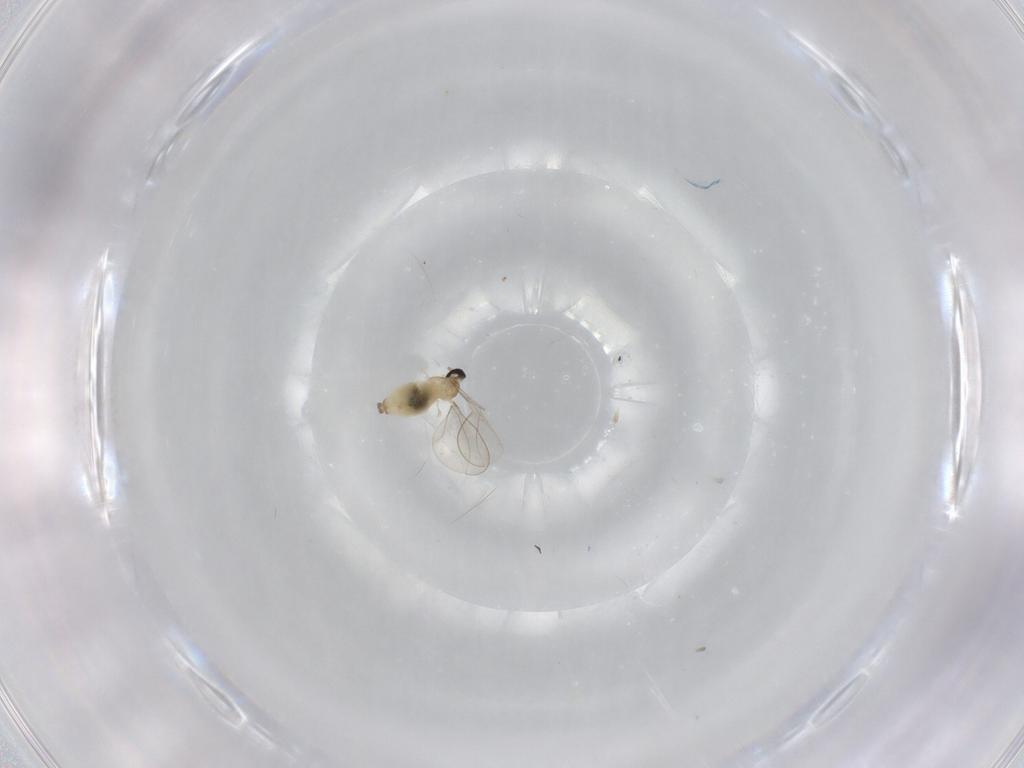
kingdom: Animalia
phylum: Arthropoda
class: Insecta
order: Diptera
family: Cecidomyiidae
